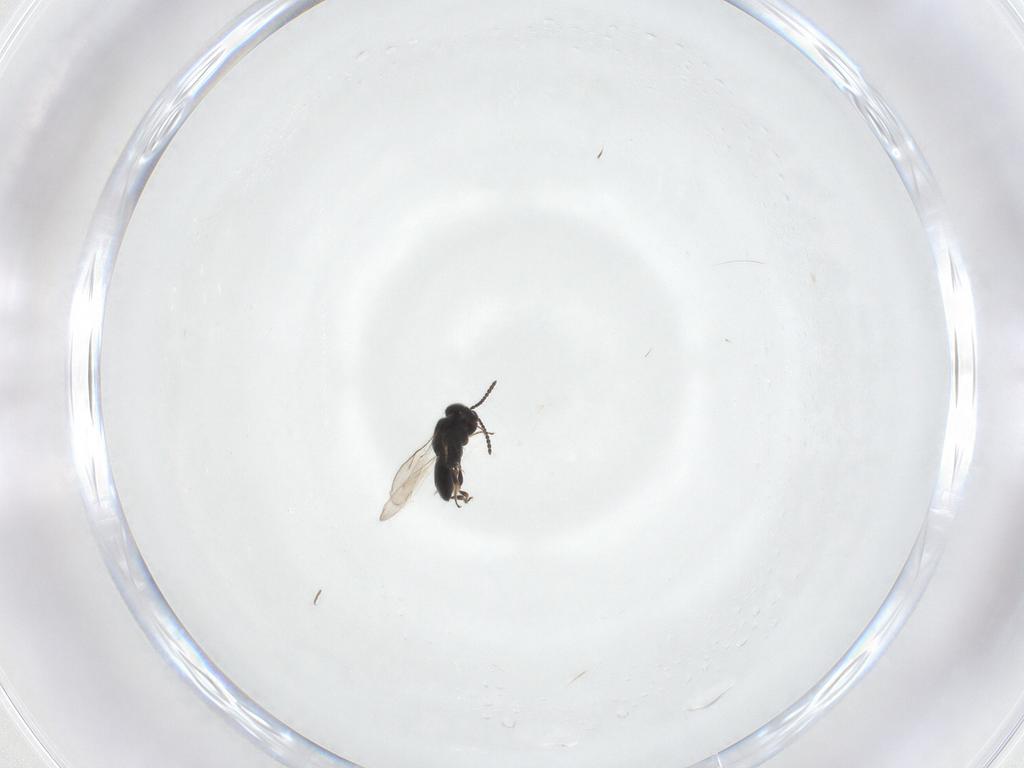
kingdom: Animalia
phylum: Arthropoda
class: Insecta
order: Hymenoptera
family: Scelionidae
